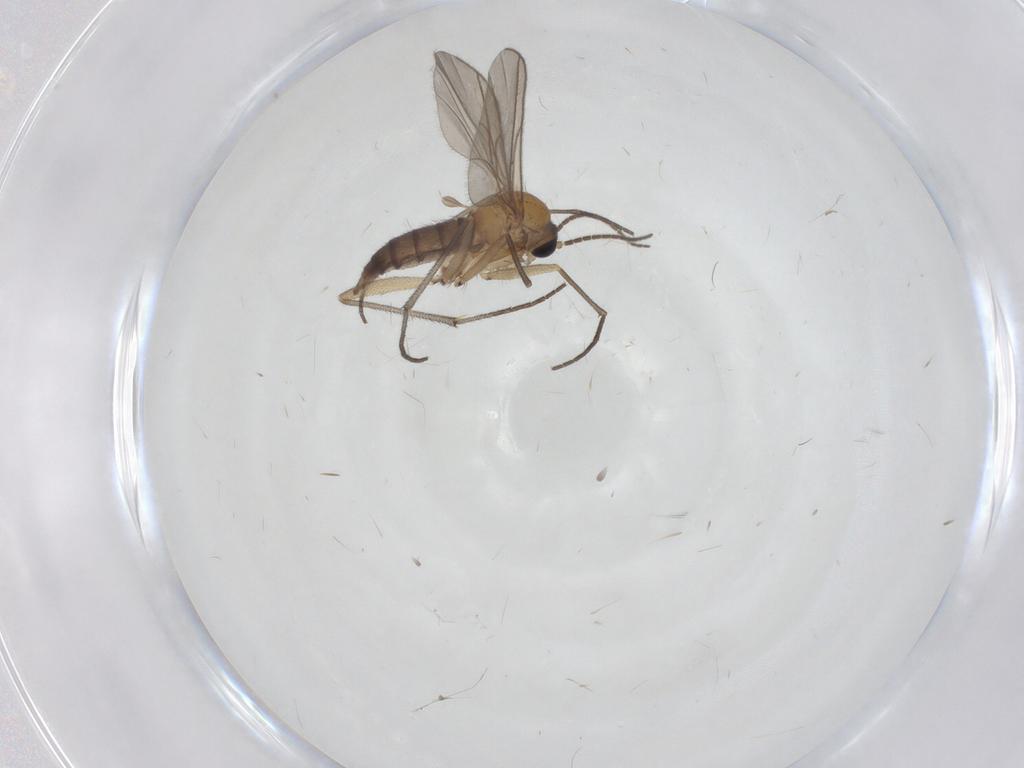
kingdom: Animalia
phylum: Arthropoda
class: Insecta
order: Diptera
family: Sciaridae
